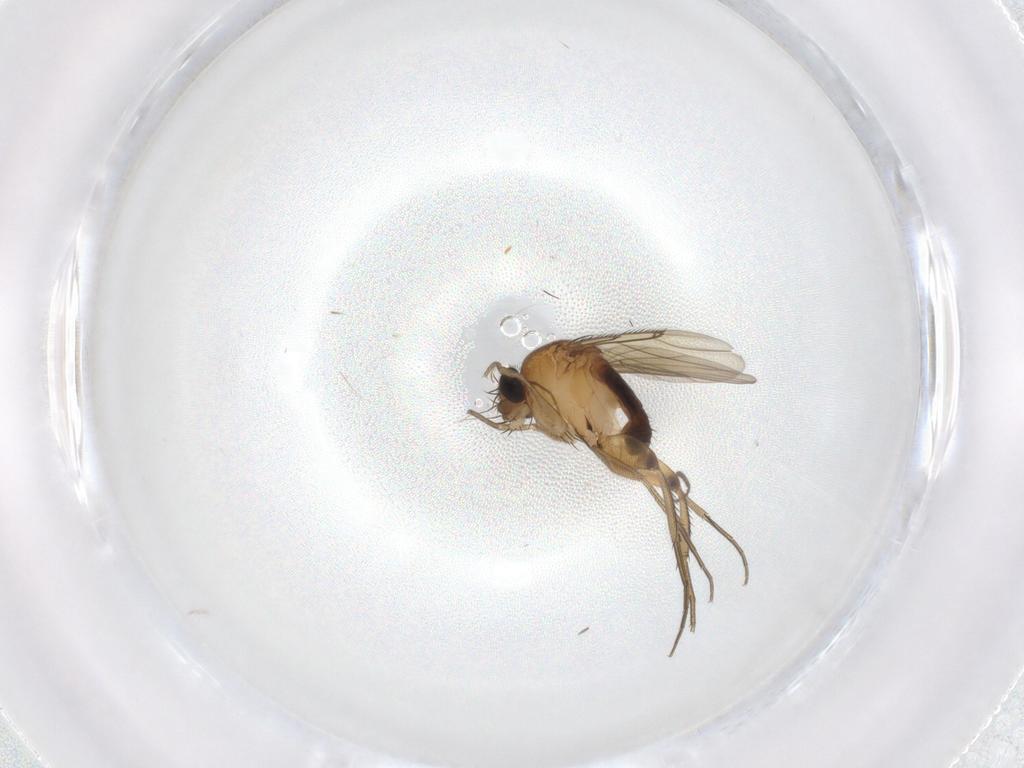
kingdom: Animalia
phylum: Arthropoda
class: Insecta
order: Diptera
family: Phoridae
